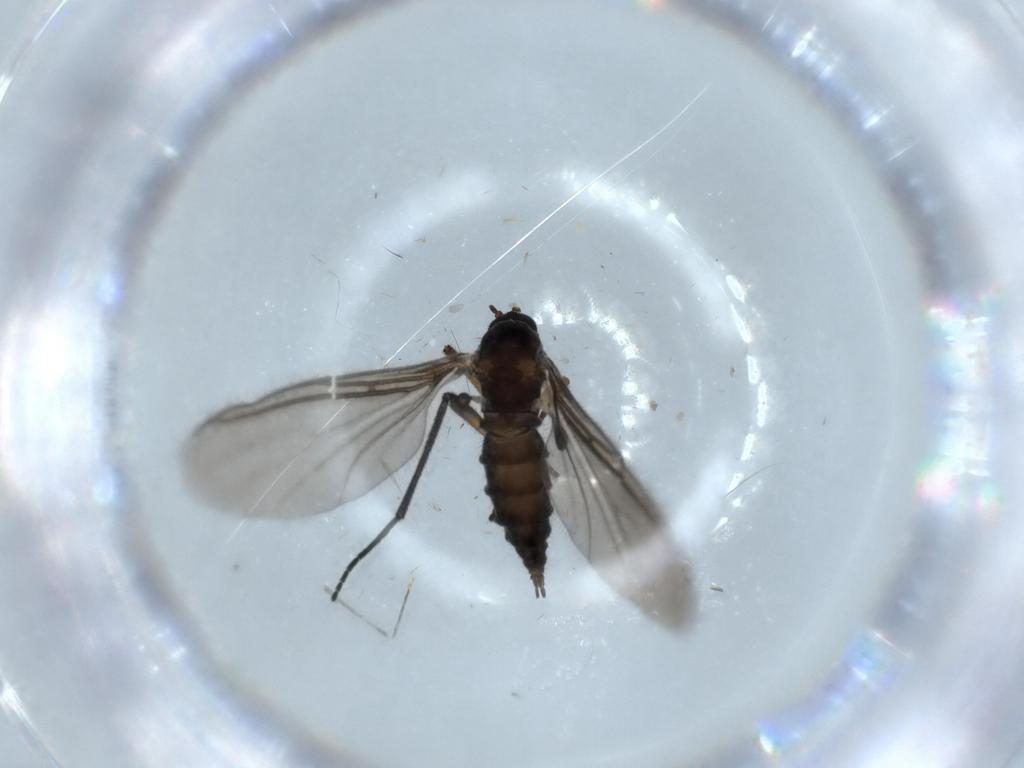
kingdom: Animalia
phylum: Arthropoda
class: Insecta
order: Diptera
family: Sciaridae
